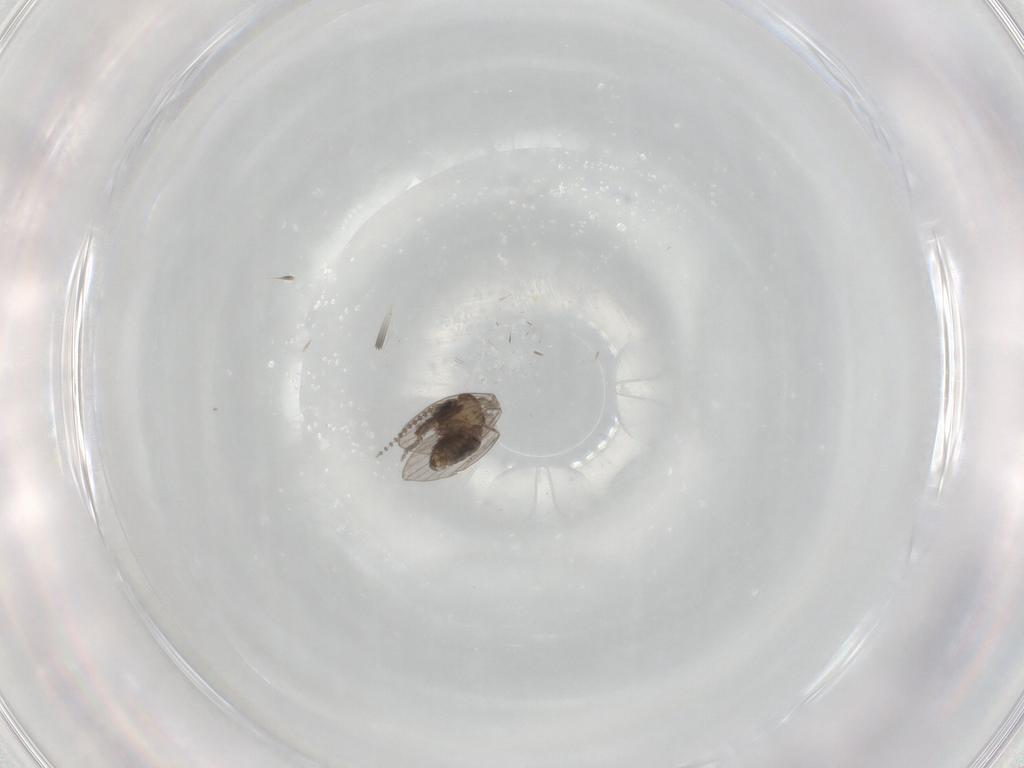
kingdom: Animalia
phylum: Arthropoda
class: Insecta
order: Diptera
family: Psychodidae
